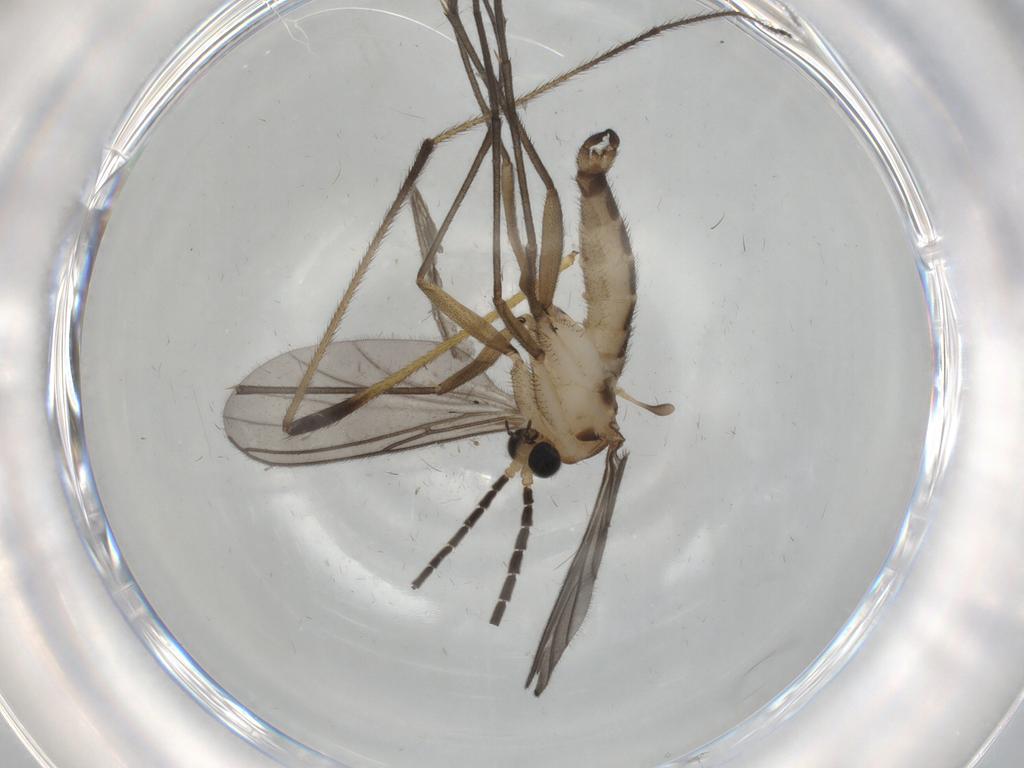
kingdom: Animalia
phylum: Arthropoda
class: Insecta
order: Diptera
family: Sciaridae
